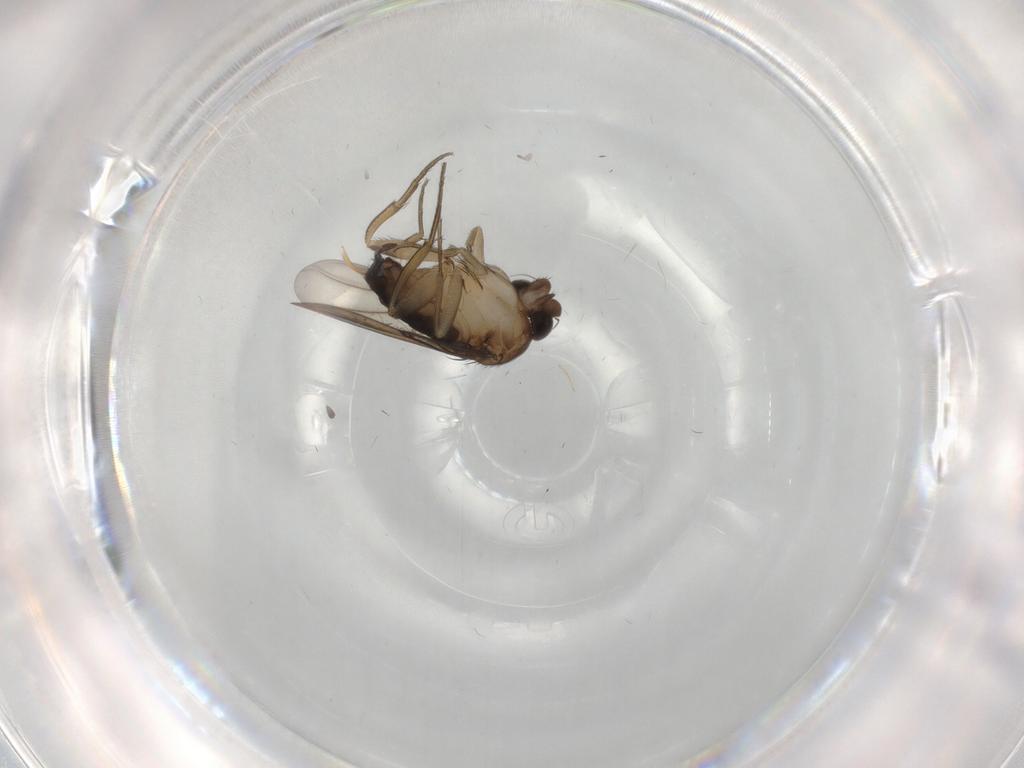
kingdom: Animalia
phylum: Arthropoda
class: Insecta
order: Diptera
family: Phoridae
